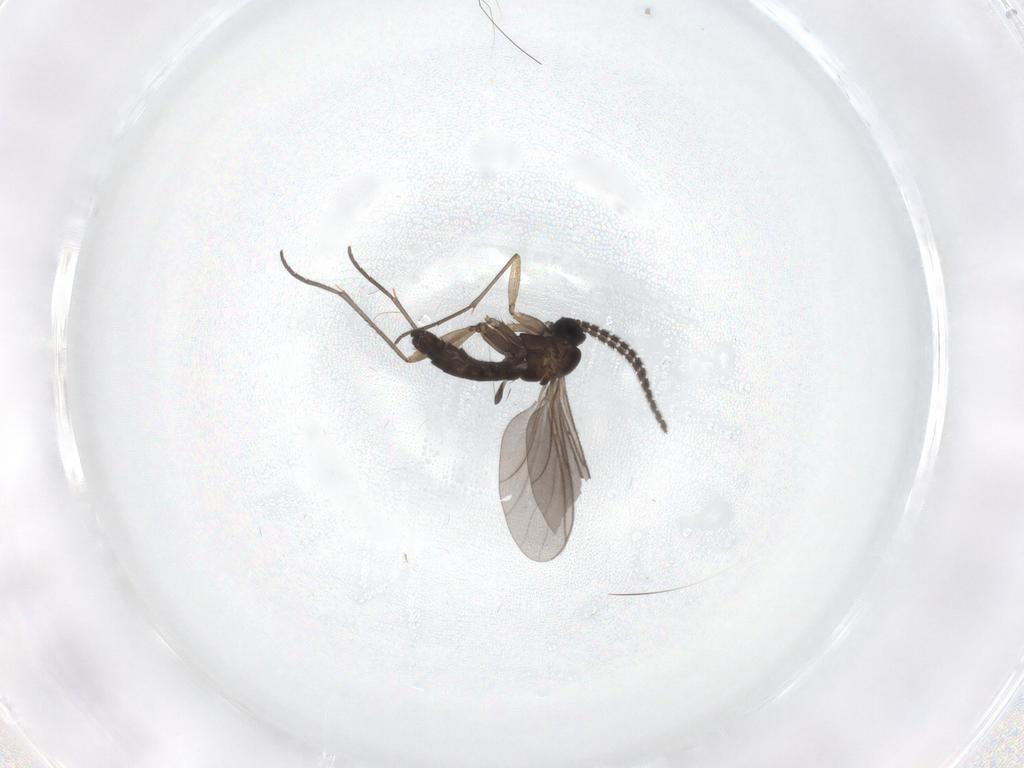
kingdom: Animalia
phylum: Arthropoda
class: Insecta
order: Diptera
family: Sciaridae
